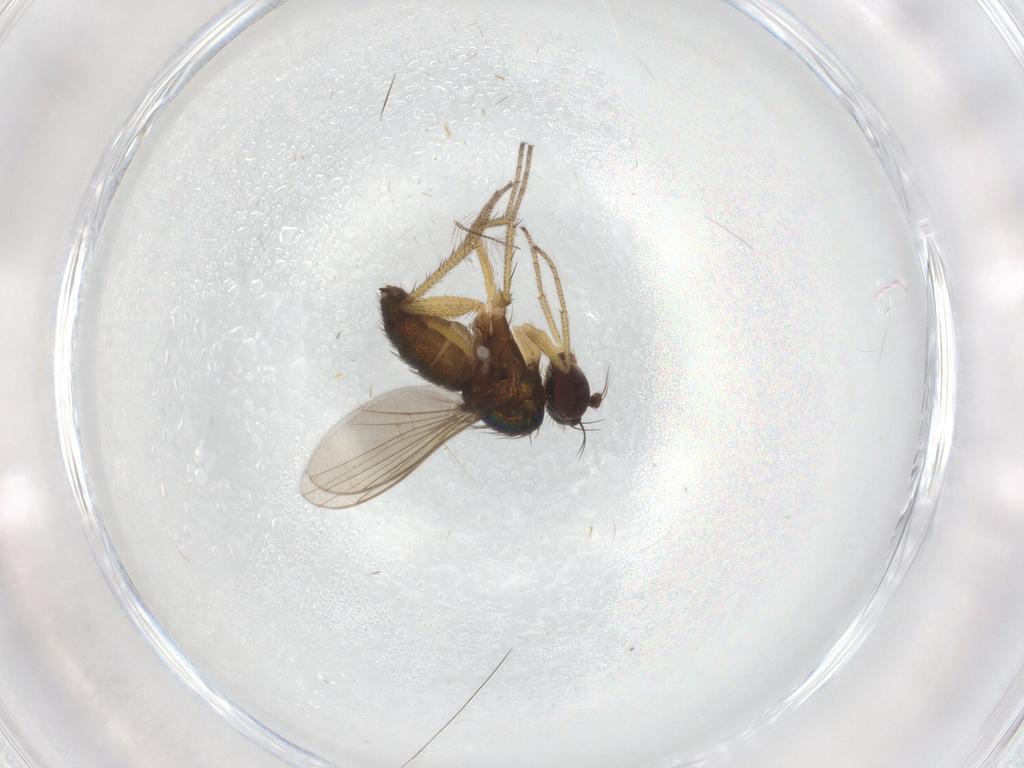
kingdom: Animalia
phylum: Arthropoda
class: Insecta
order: Diptera
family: Dolichopodidae
